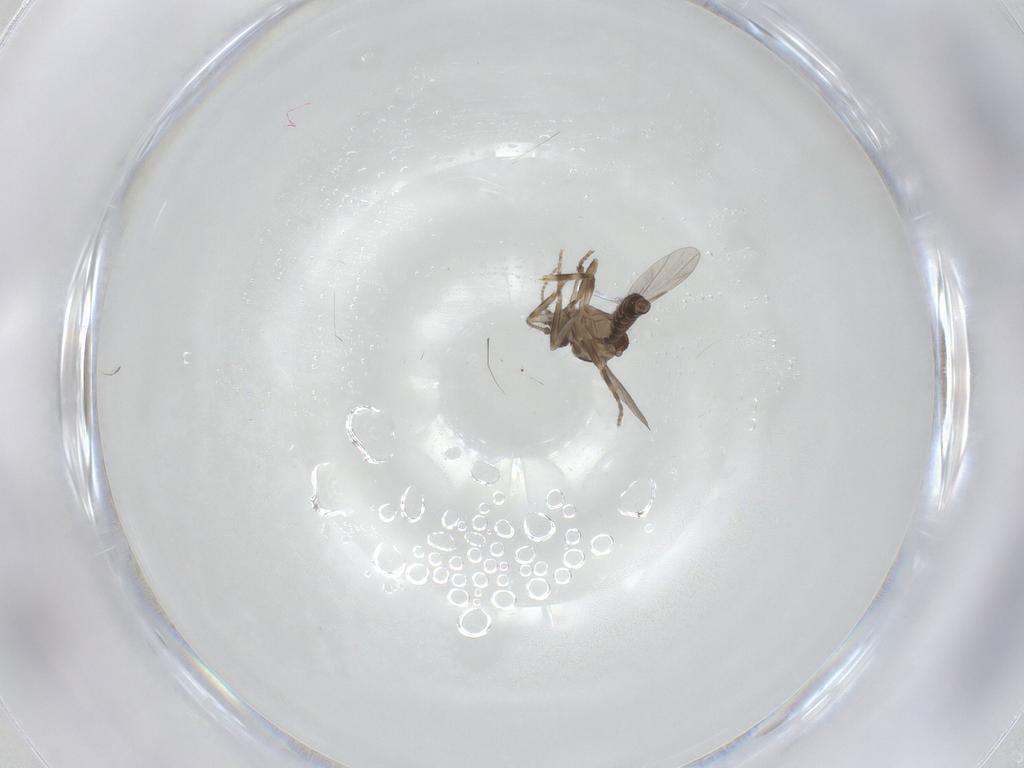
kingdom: Animalia
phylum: Arthropoda
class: Insecta
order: Diptera
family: Ceratopogonidae
